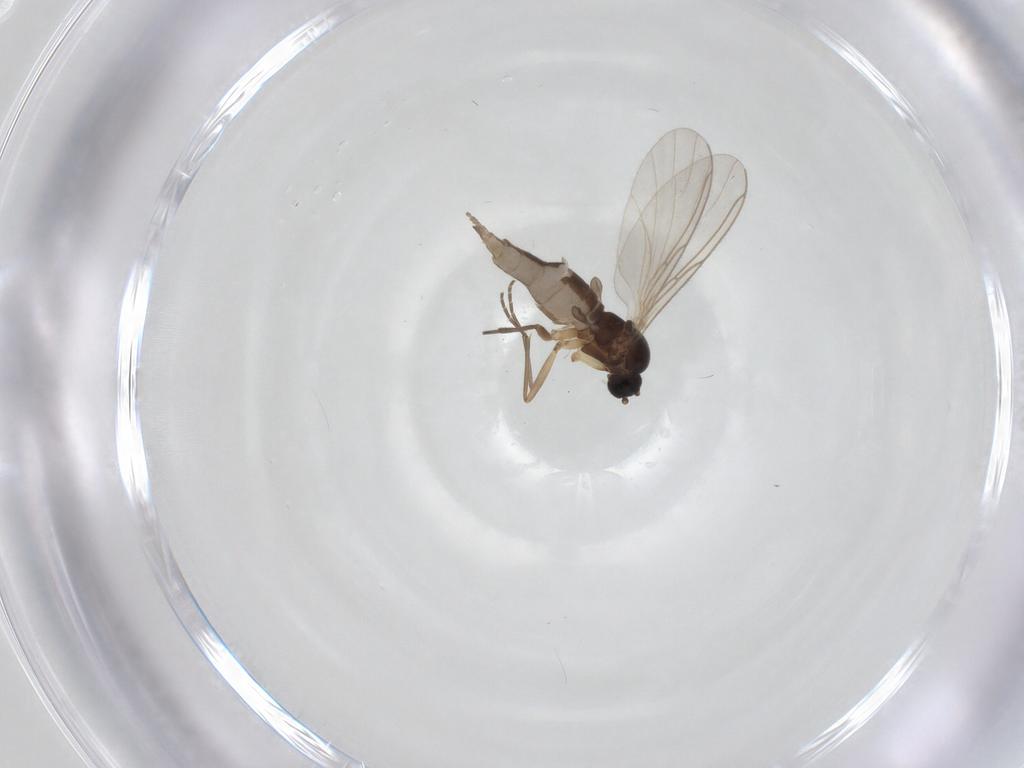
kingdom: Animalia
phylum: Arthropoda
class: Insecta
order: Diptera
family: Sciaridae
